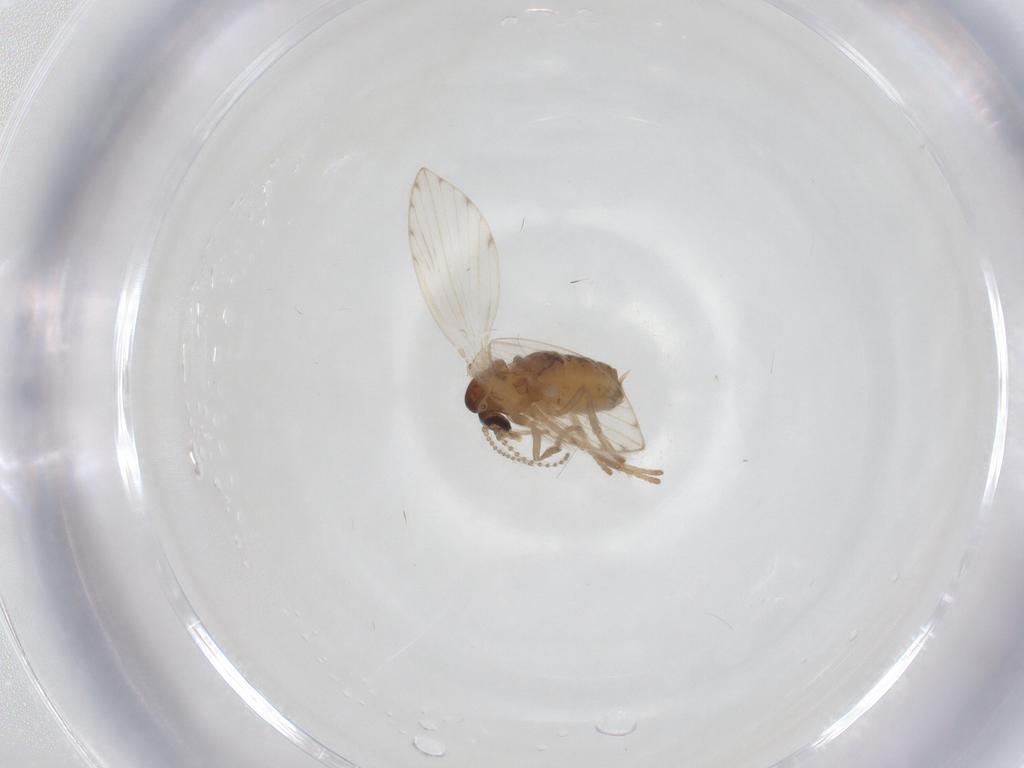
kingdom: Animalia
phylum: Arthropoda
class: Insecta
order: Diptera
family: Psychodidae
